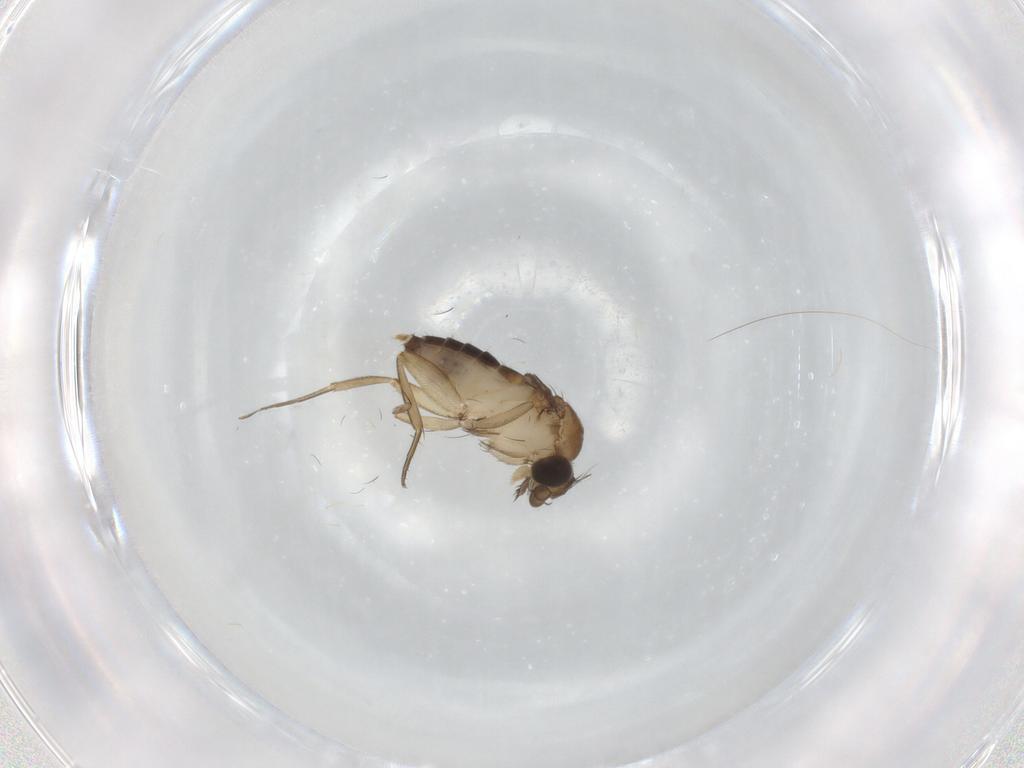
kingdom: Animalia
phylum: Arthropoda
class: Insecta
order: Diptera
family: Phoridae
